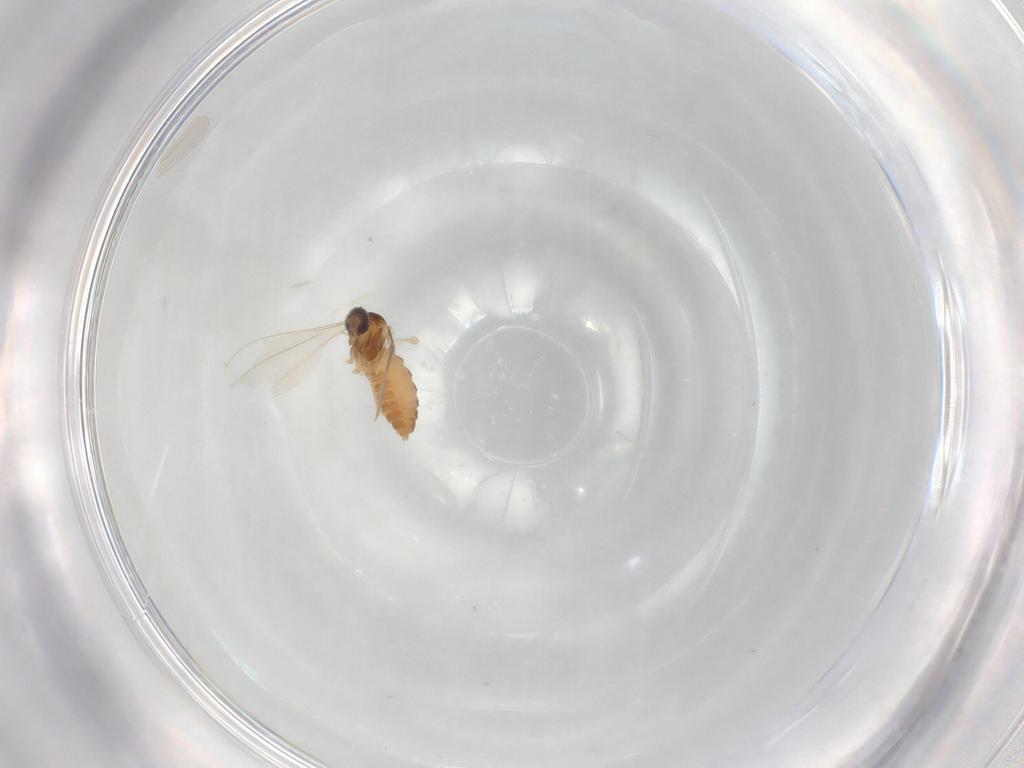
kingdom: Animalia
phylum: Arthropoda
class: Insecta
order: Diptera
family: Cecidomyiidae
